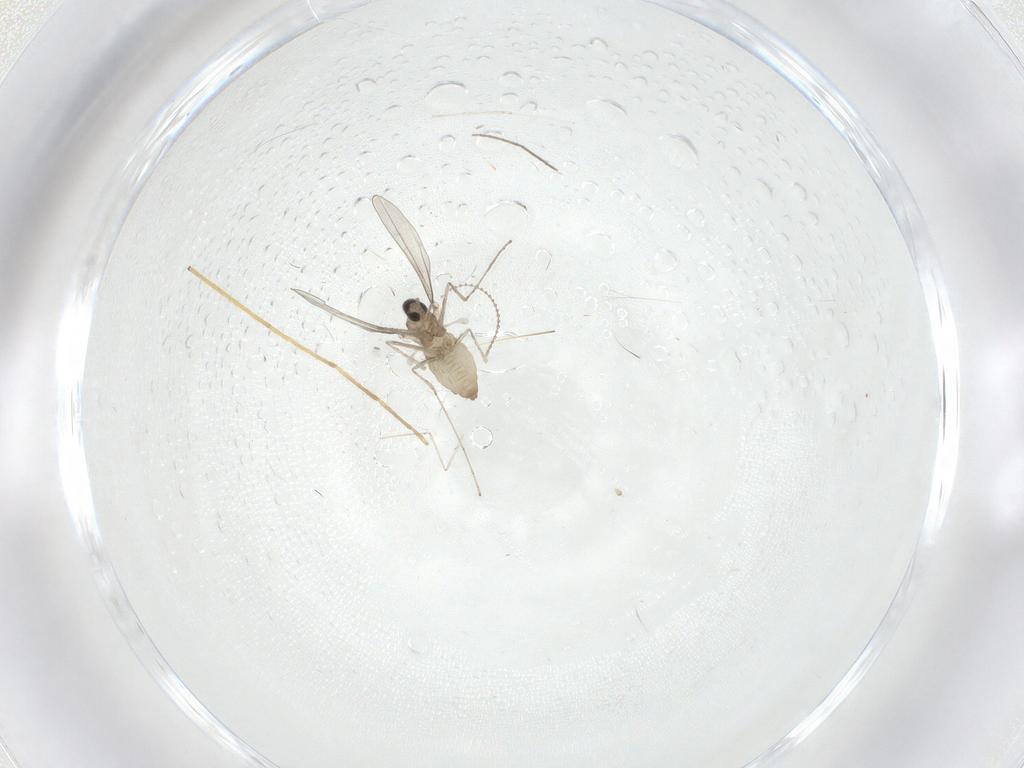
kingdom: Animalia
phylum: Arthropoda
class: Insecta
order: Diptera
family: Chironomidae
